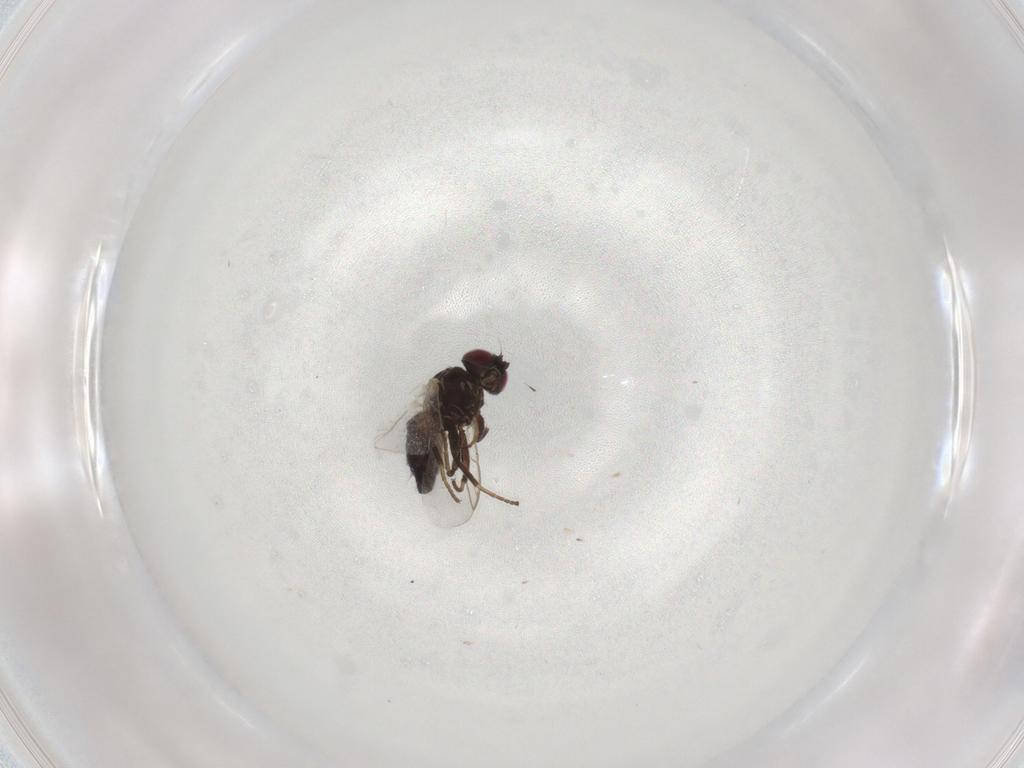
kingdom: Animalia
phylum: Arthropoda
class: Insecta
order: Diptera
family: Agromyzidae
